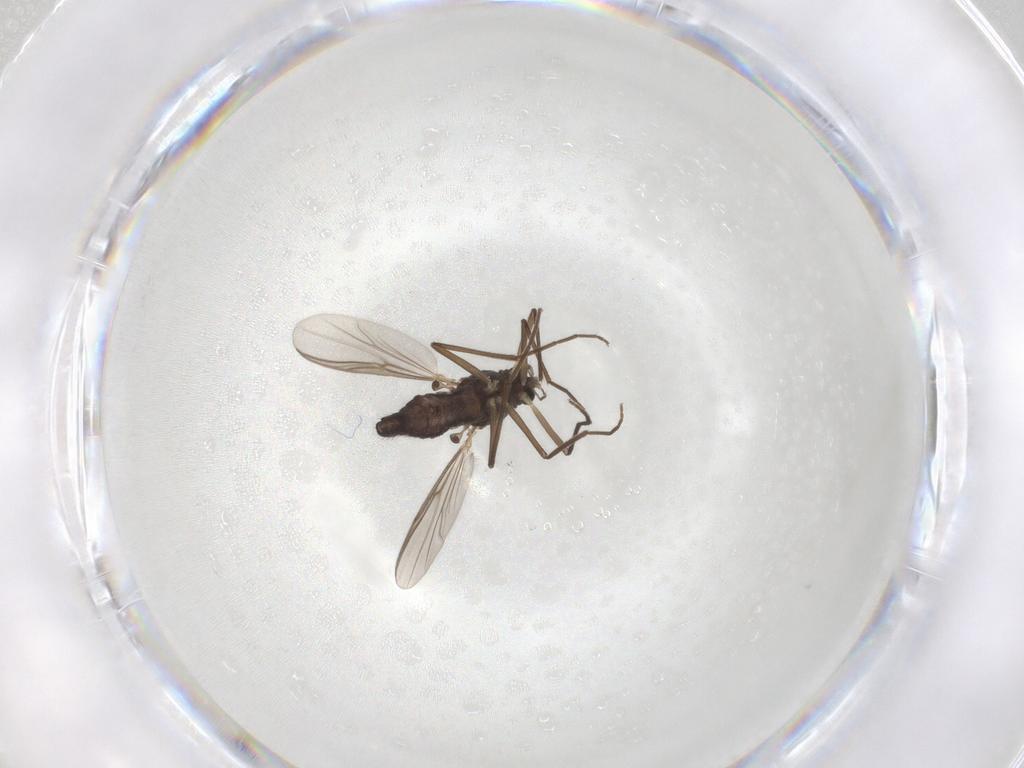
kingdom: Animalia
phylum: Arthropoda
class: Insecta
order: Diptera
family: Chironomidae
